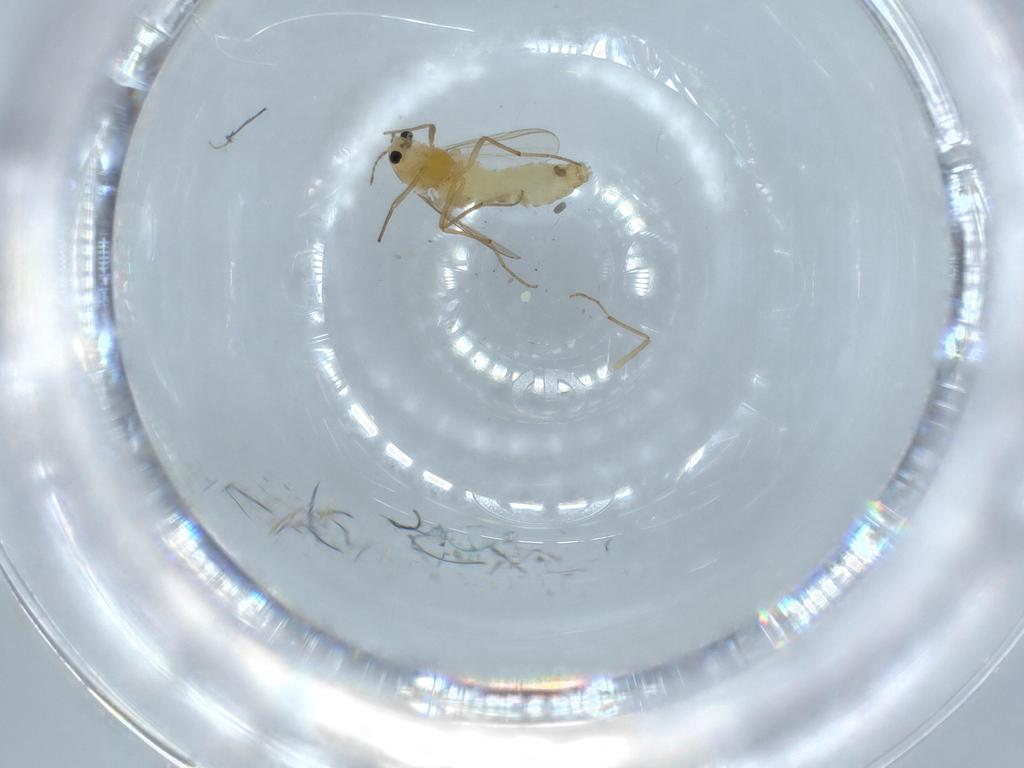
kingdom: Animalia
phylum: Arthropoda
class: Insecta
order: Diptera
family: Chironomidae
